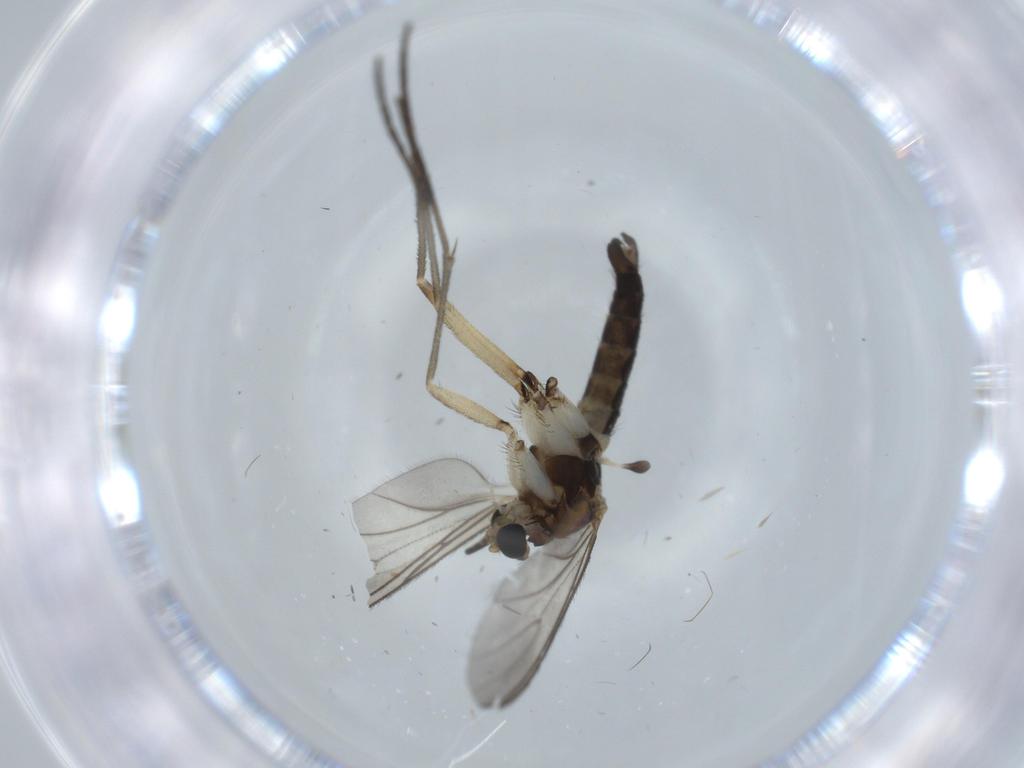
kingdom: Animalia
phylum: Arthropoda
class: Insecta
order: Diptera
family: Sciaridae
